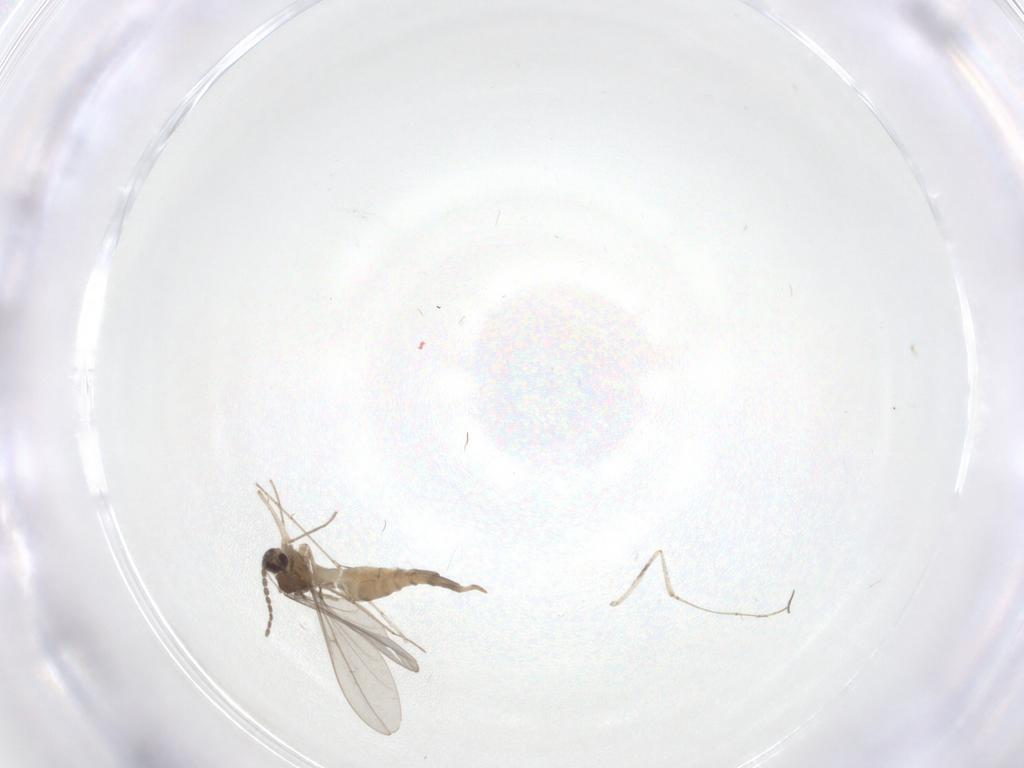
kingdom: Animalia
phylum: Arthropoda
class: Insecta
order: Diptera
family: Cecidomyiidae
